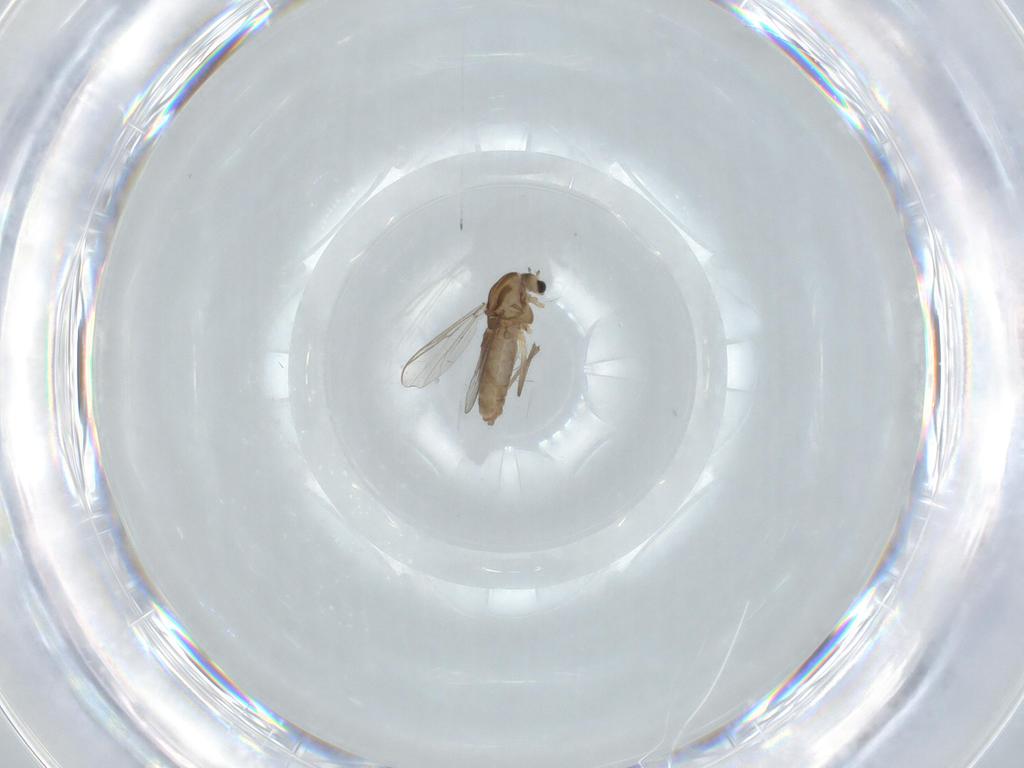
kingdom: Animalia
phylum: Arthropoda
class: Insecta
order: Diptera
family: Chironomidae
